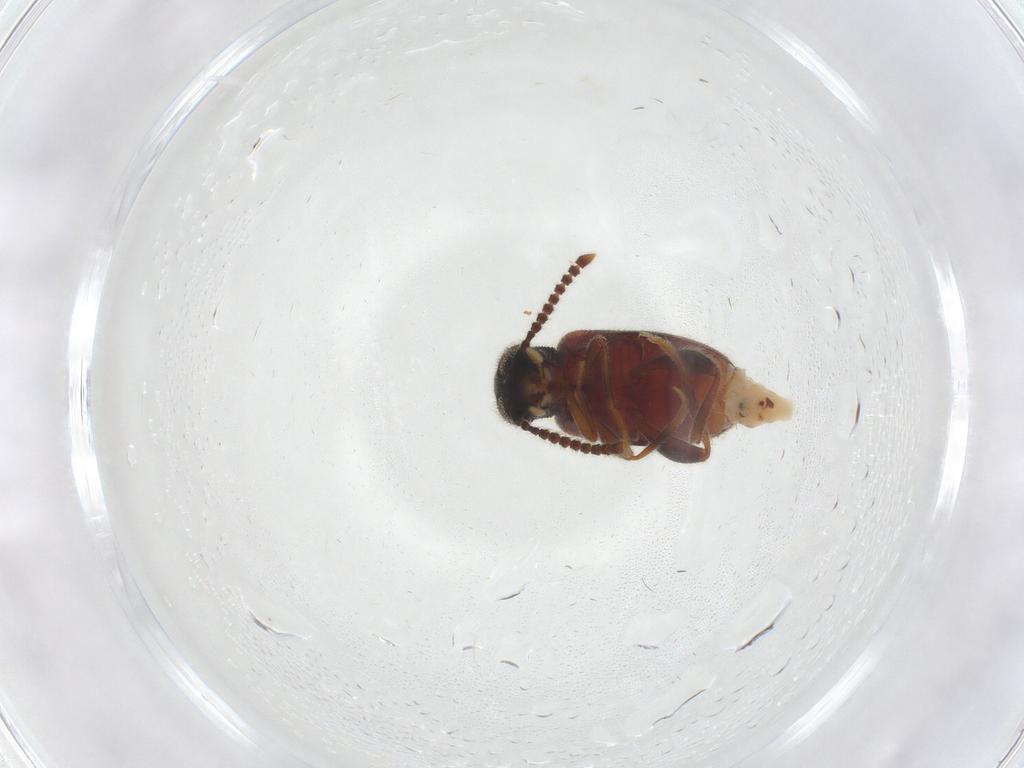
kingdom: Animalia
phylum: Arthropoda
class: Insecta
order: Coleoptera
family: Aderidae
